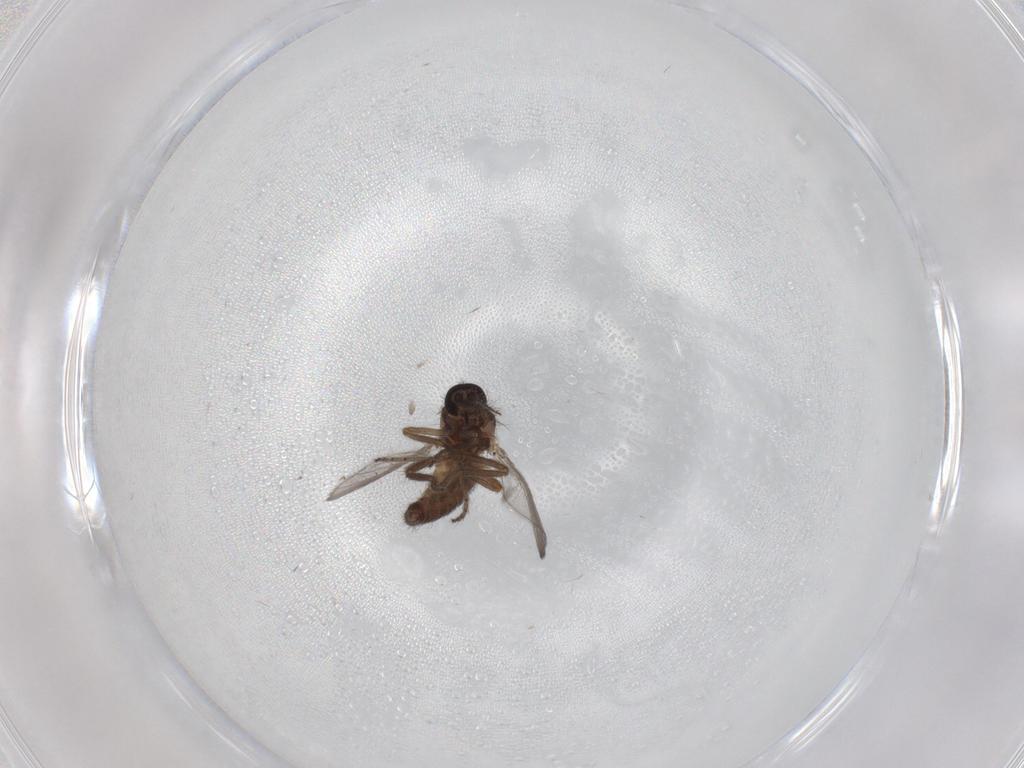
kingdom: Animalia
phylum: Arthropoda
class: Insecta
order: Diptera
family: Ceratopogonidae
